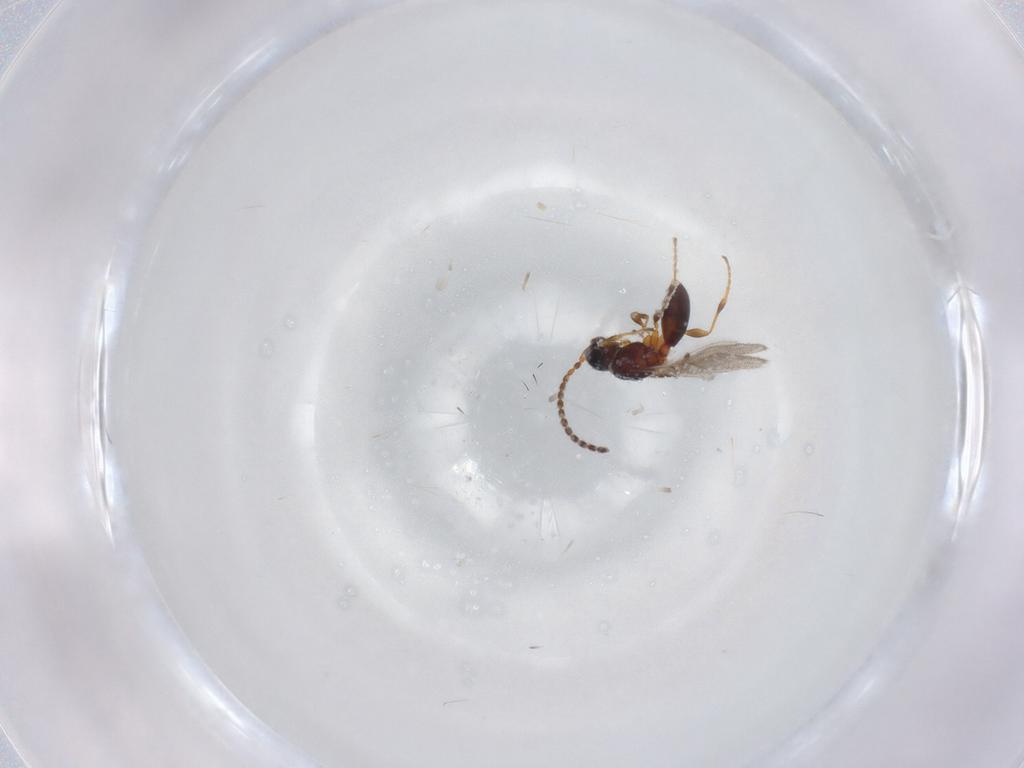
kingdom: Animalia
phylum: Arthropoda
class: Insecta
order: Hymenoptera
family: Diapriidae
